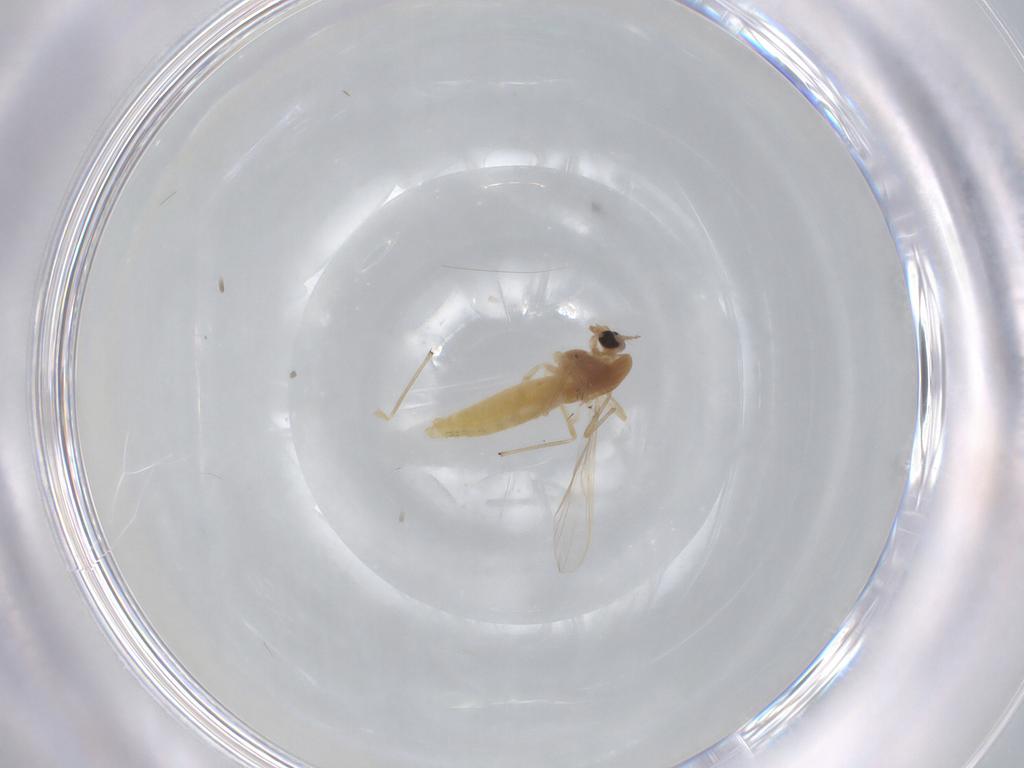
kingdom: Animalia
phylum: Arthropoda
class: Insecta
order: Diptera
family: Chironomidae
